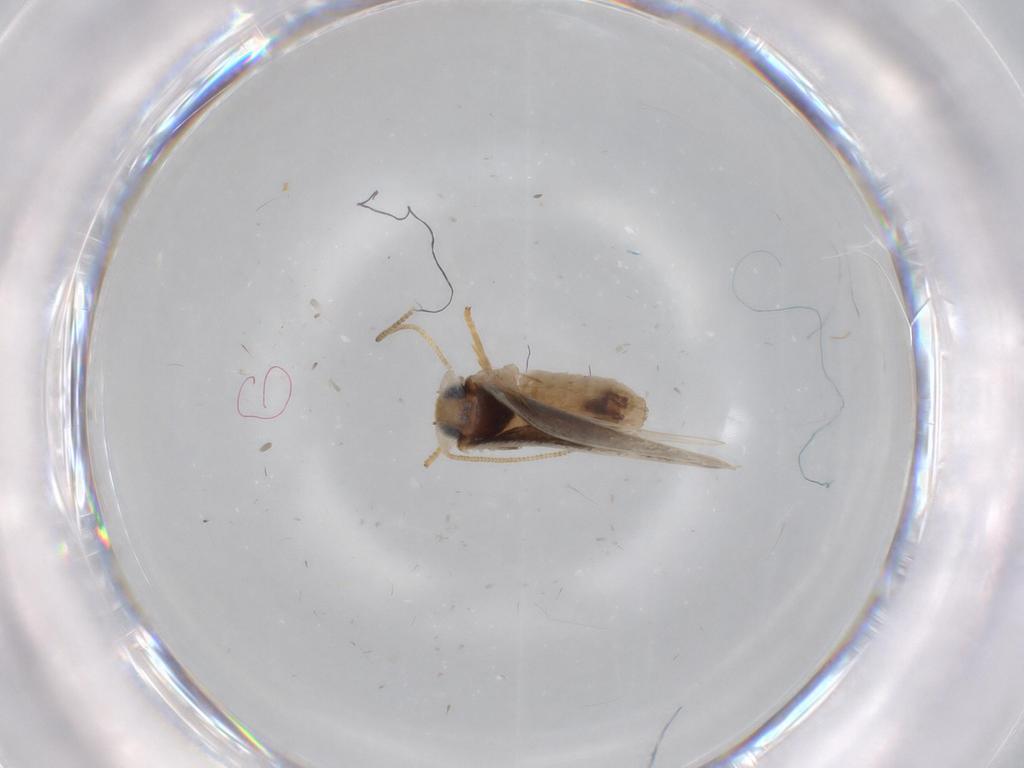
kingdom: Animalia
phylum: Arthropoda
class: Insecta
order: Lepidoptera
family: Nepticulidae
